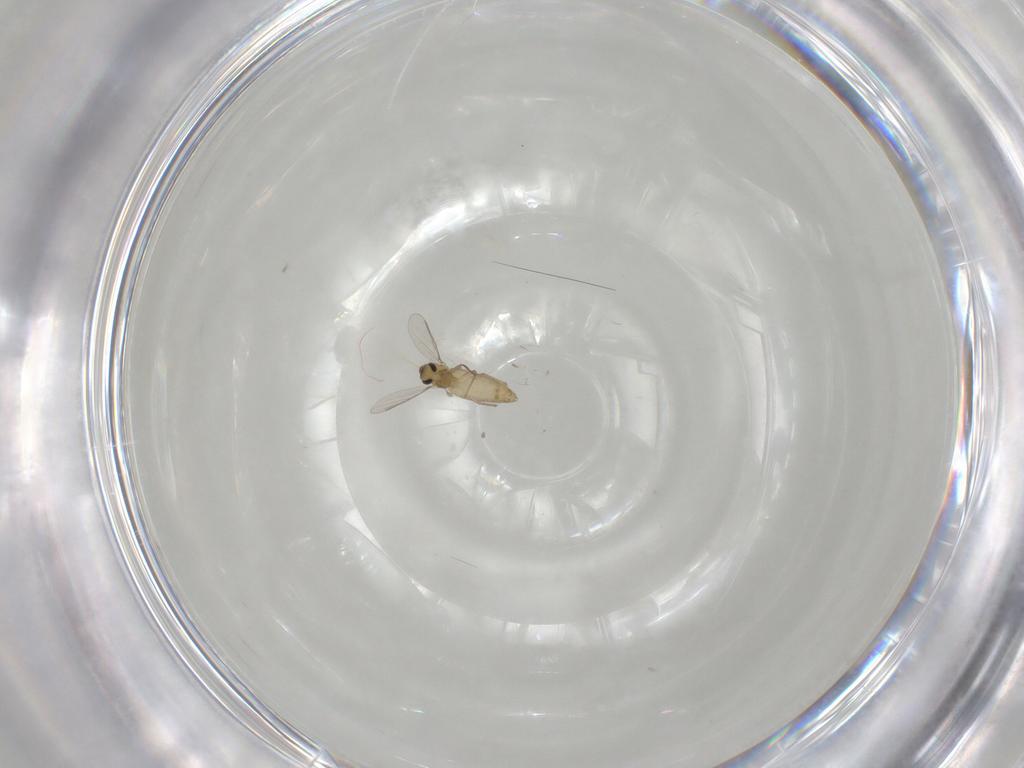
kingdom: Animalia
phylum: Arthropoda
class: Insecta
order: Diptera
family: Chironomidae
